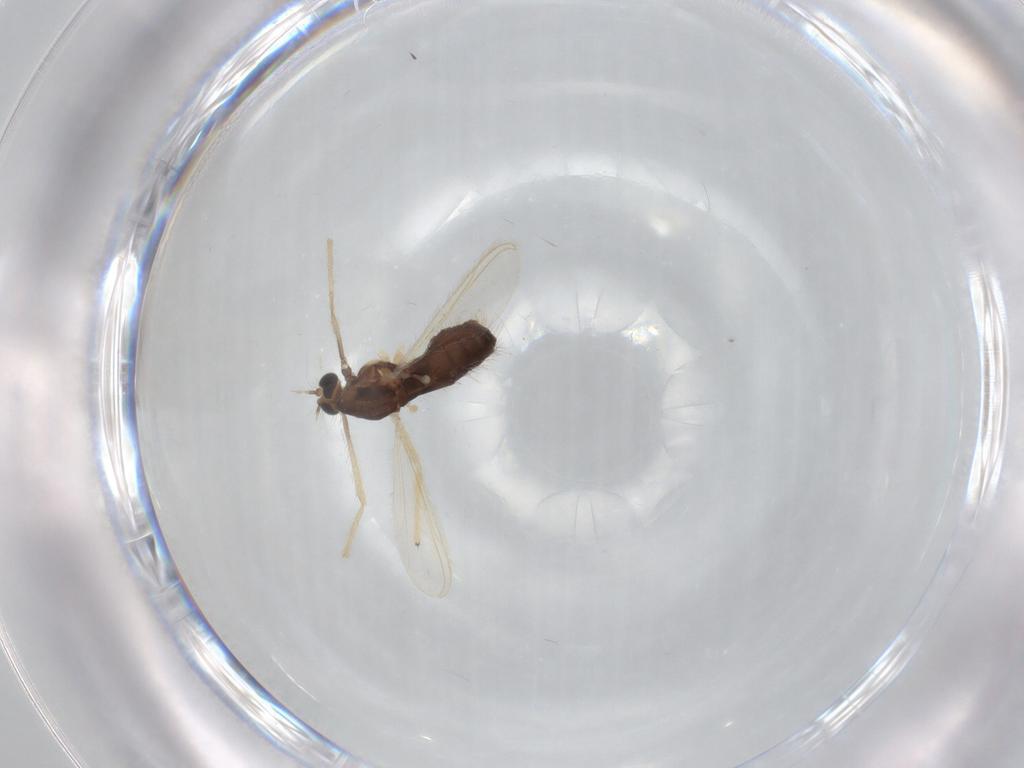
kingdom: Animalia
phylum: Arthropoda
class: Insecta
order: Diptera
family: Chironomidae
